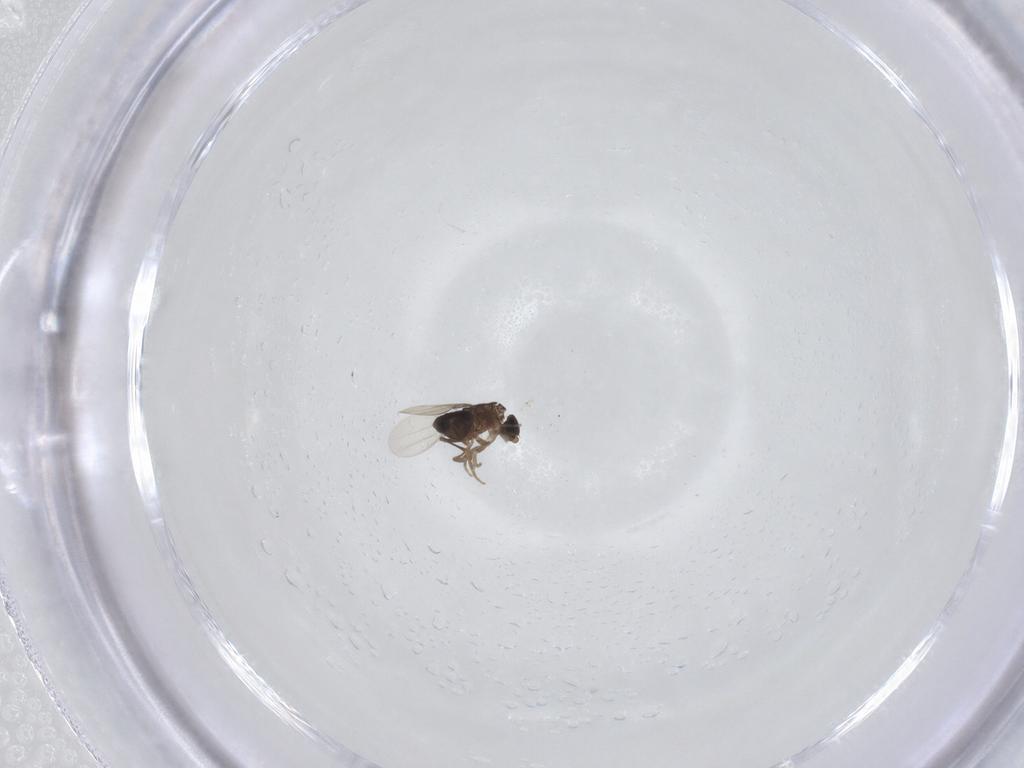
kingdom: Animalia
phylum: Arthropoda
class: Insecta
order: Diptera
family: Phoridae
